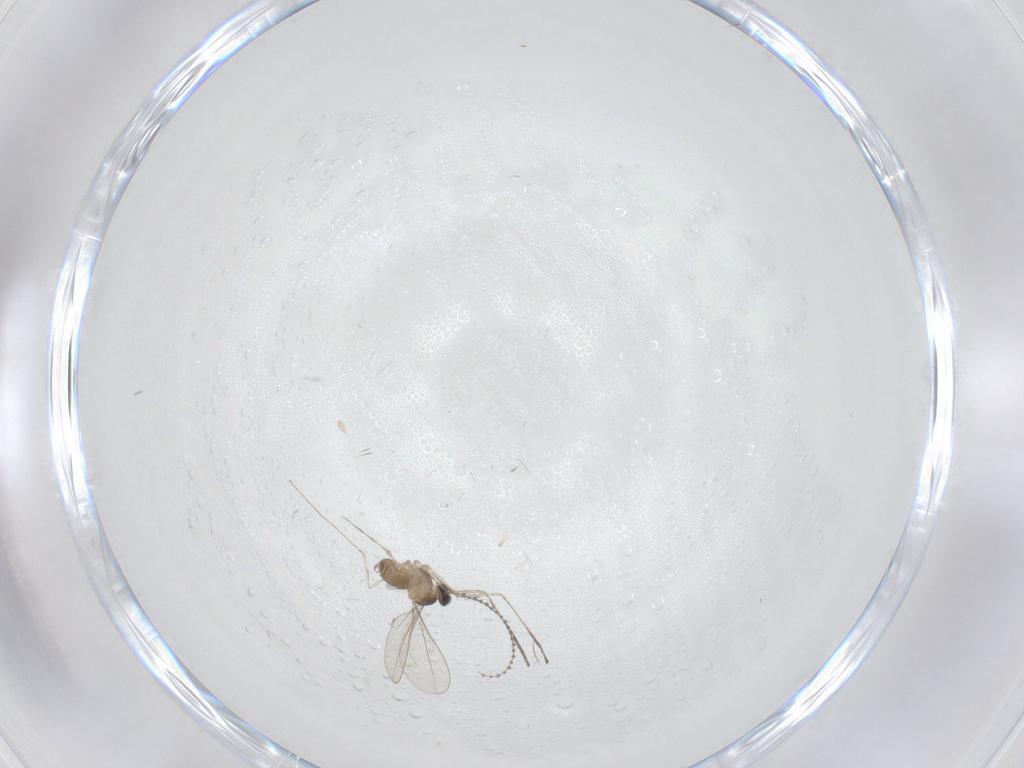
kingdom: Animalia
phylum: Arthropoda
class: Insecta
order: Diptera
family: Cecidomyiidae
